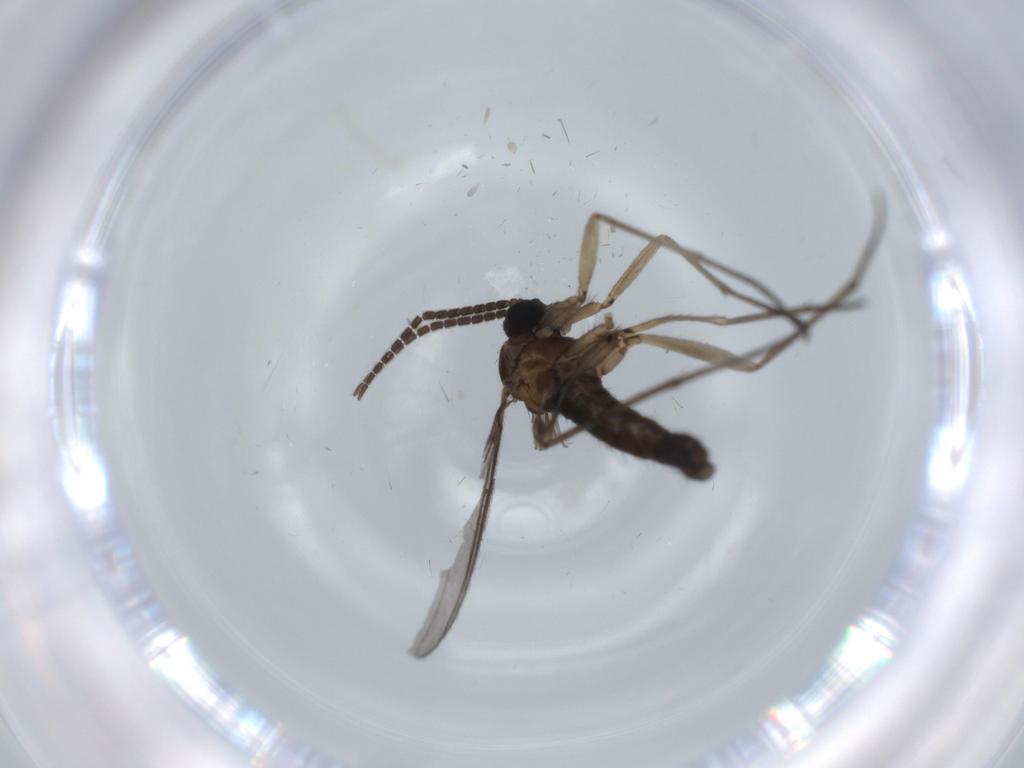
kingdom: Animalia
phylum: Arthropoda
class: Insecta
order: Diptera
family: Sciaridae
